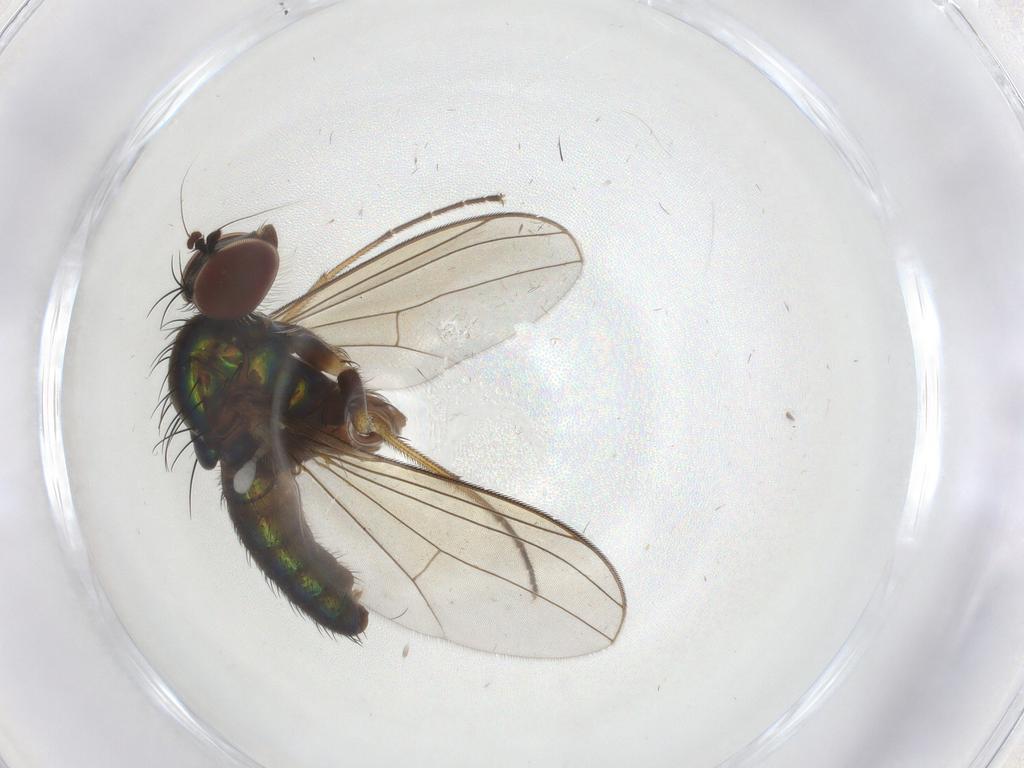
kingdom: Animalia
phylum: Arthropoda
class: Insecta
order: Diptera
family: Dolichopodidae
